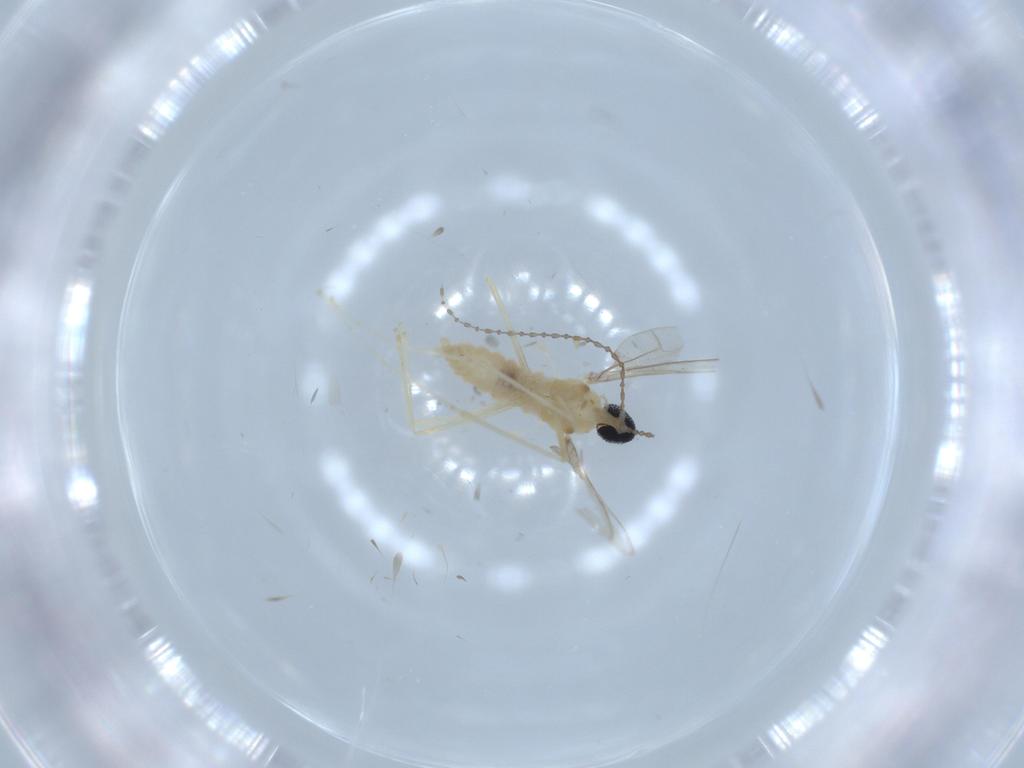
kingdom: Animalia
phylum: Arthropoda
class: Insecta
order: Diptera
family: Cecidomyiidae
